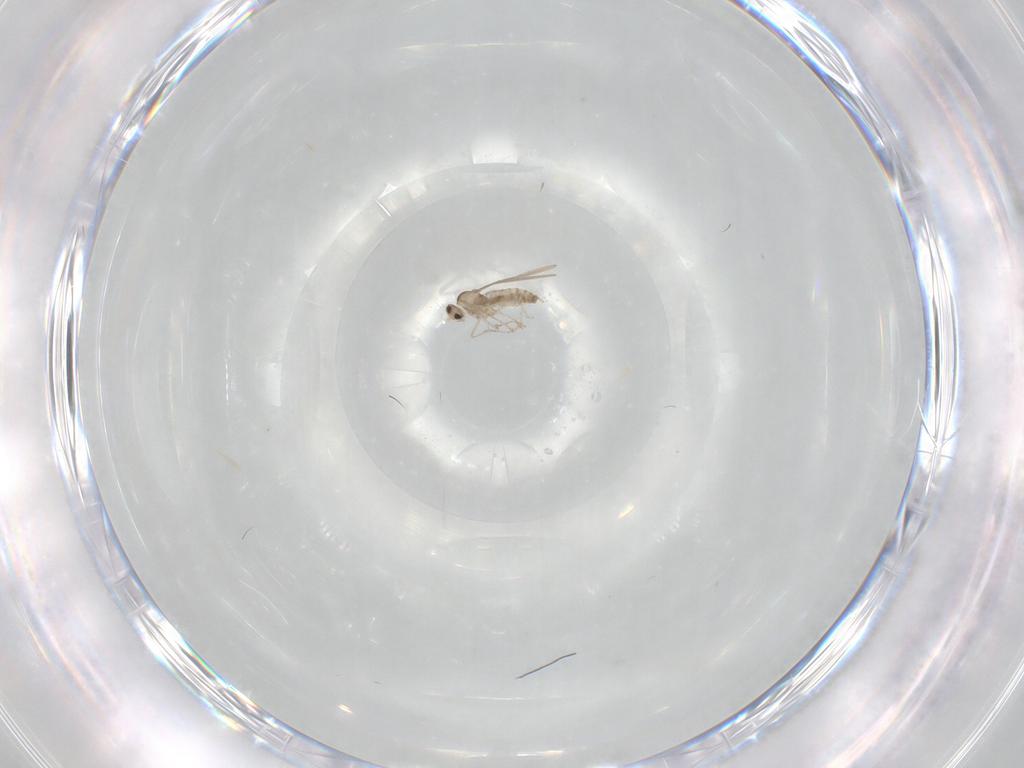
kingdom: Animalia
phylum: Arthropoda
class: Insecta
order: Diptera
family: Cecidomyiidae
